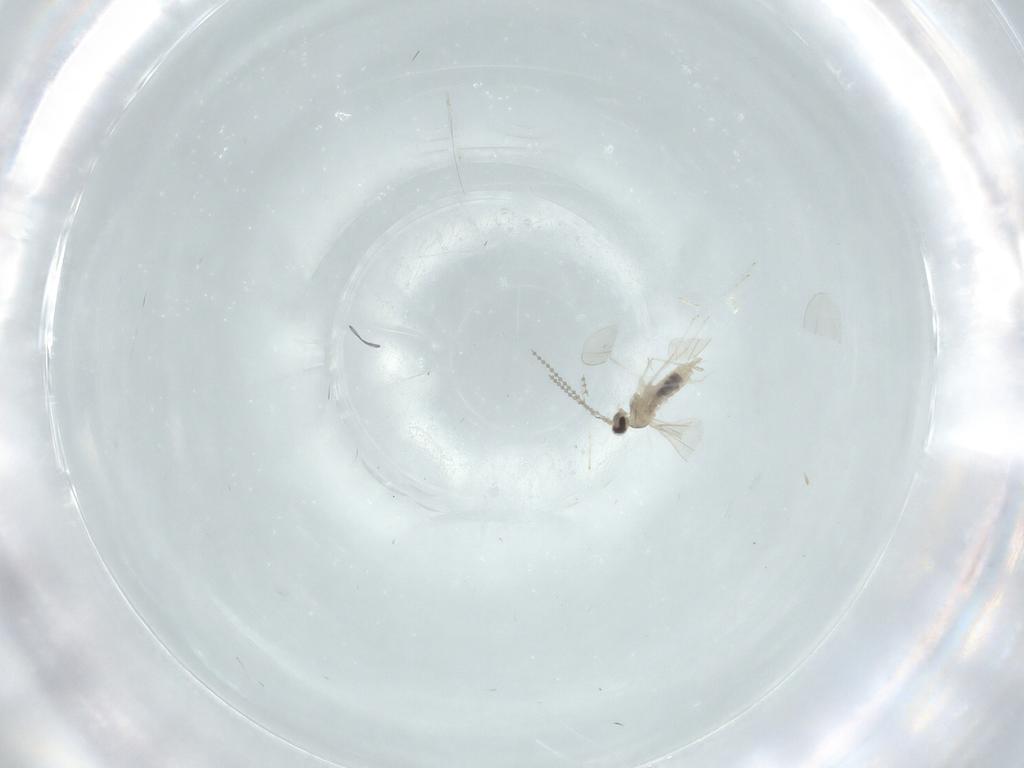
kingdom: Animalia
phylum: Arthropoda
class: Insecta
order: Diptera
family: Cecidomyiidae
